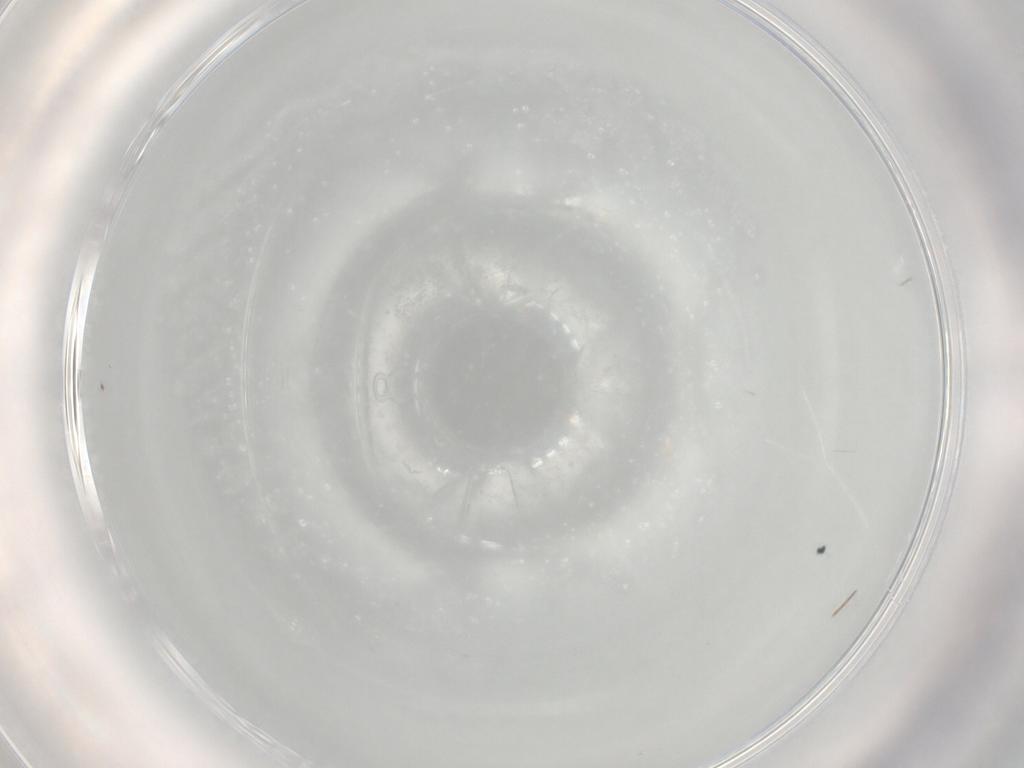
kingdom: Animalia
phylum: Arthropoda
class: Insecta
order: Diptera
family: Cecidomyiidae
